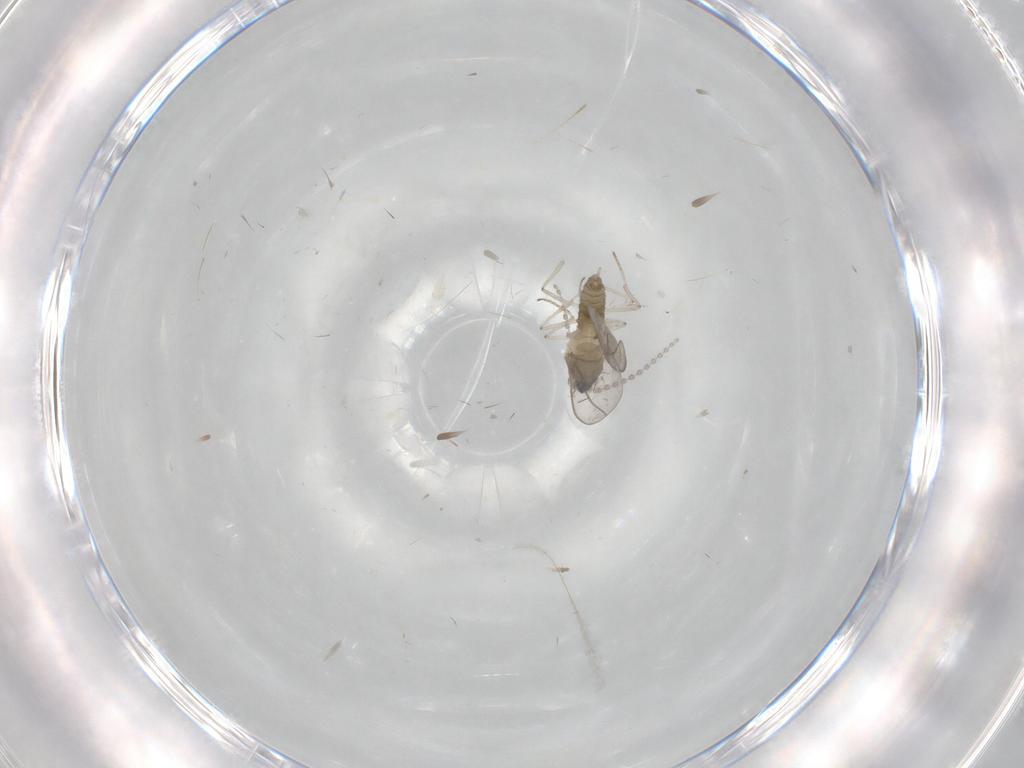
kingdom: Animalia
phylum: Arthropoda
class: Insecta
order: Diptera
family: Cecidomyiidae
